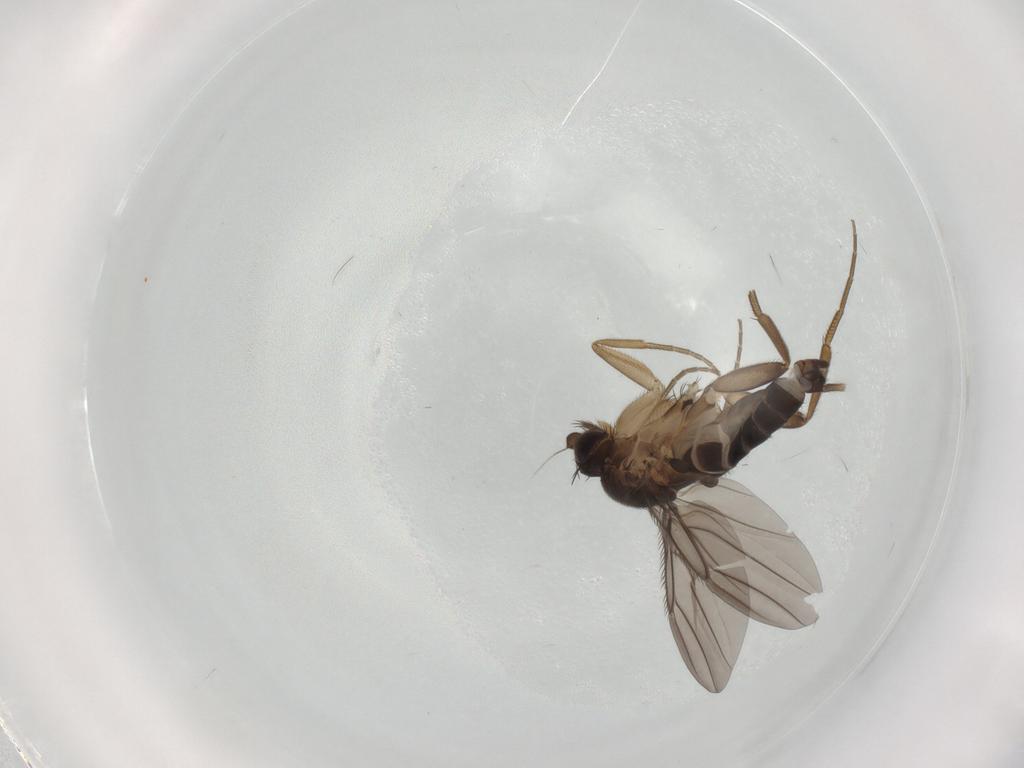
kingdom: Animalia
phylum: Arthropoda
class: Insecta
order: Diptera
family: Phoridae
